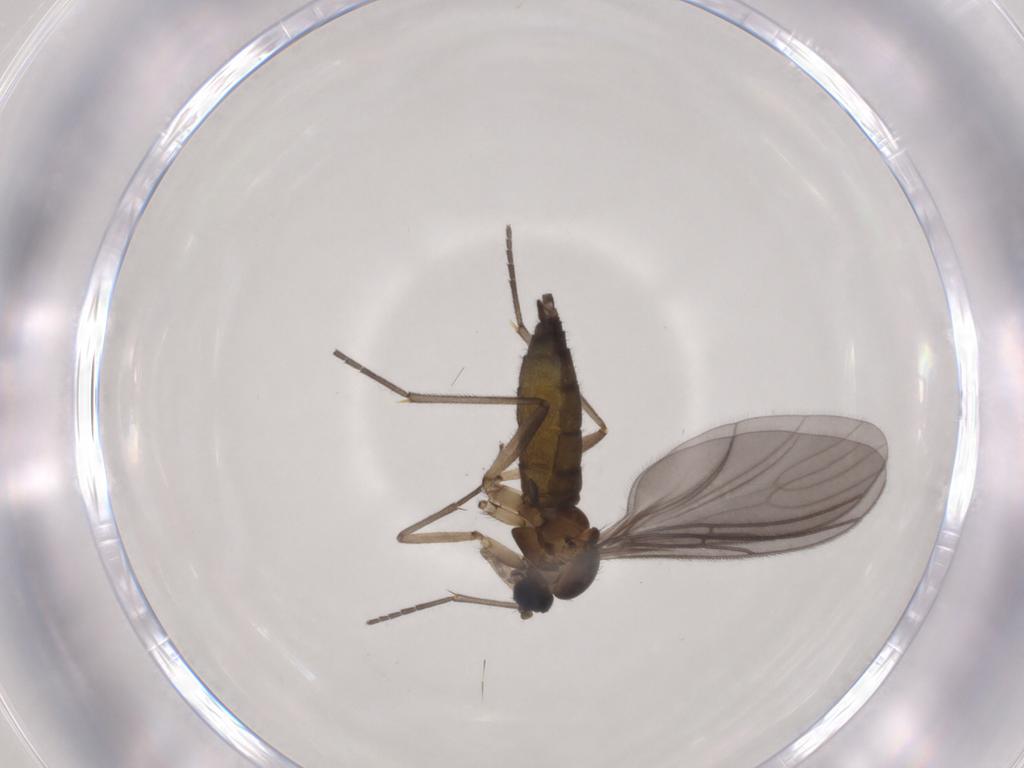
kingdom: Animalia
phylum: Arthropoda
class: Insecta
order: Diptera
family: Sciaridae
